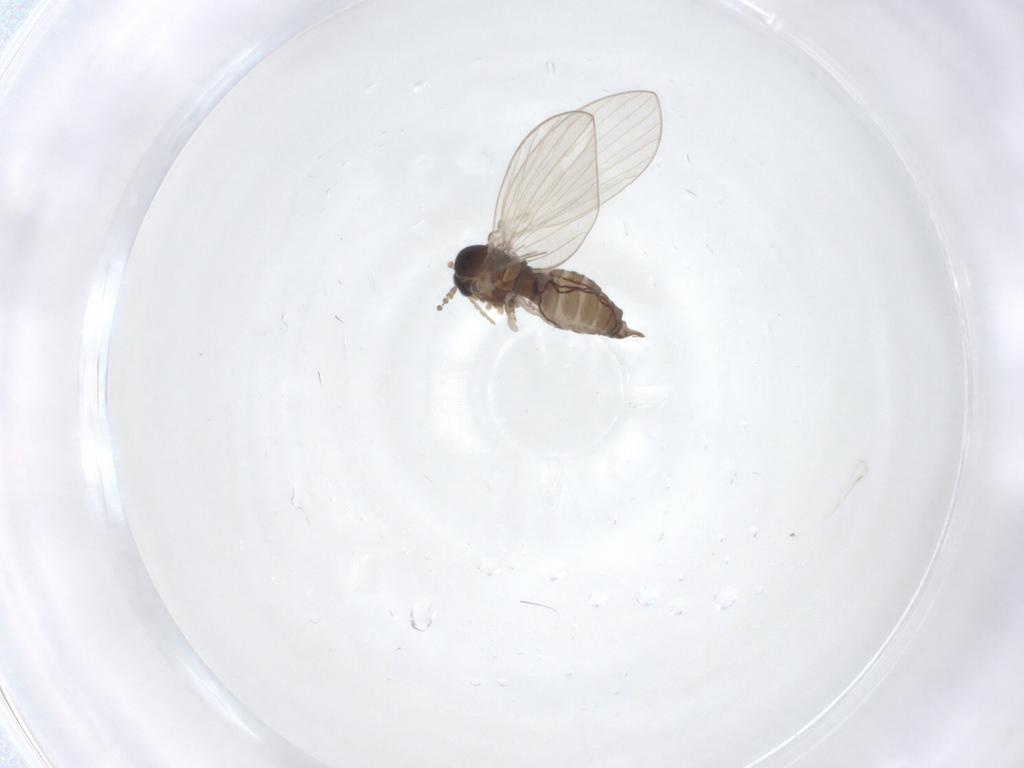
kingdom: Animalia
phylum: Arthropoda
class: Insecta
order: Diptera
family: Psychodidae
